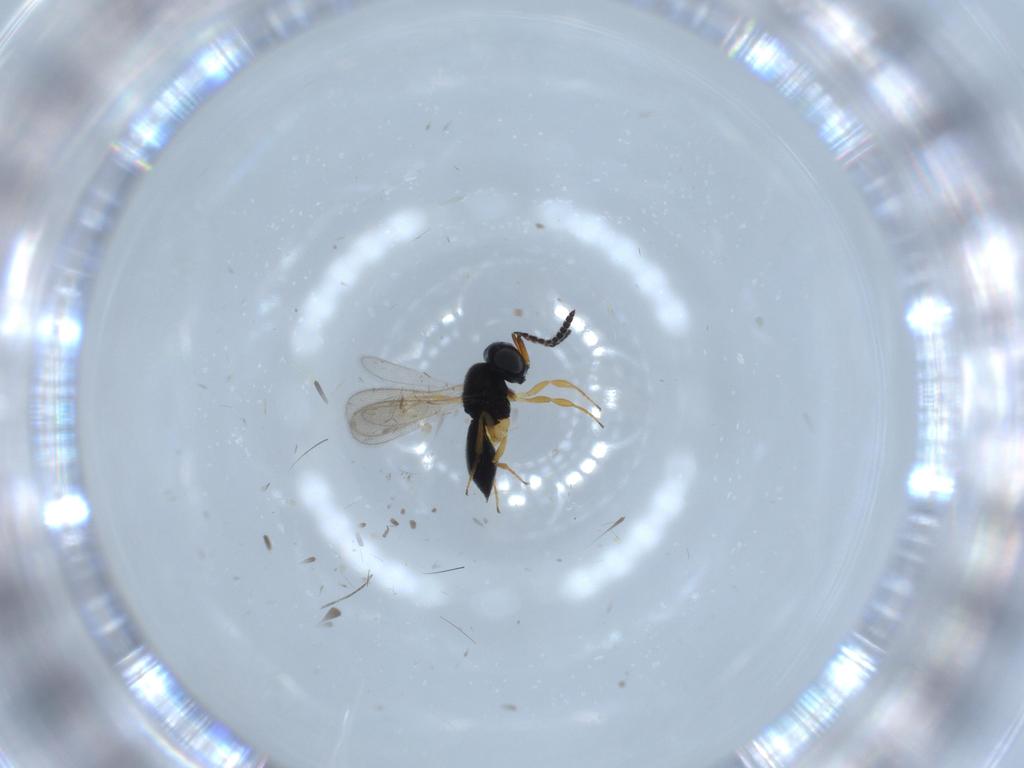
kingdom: Animalia
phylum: Arthropoda
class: Insecta
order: Hymenoptera
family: Scelionidae
